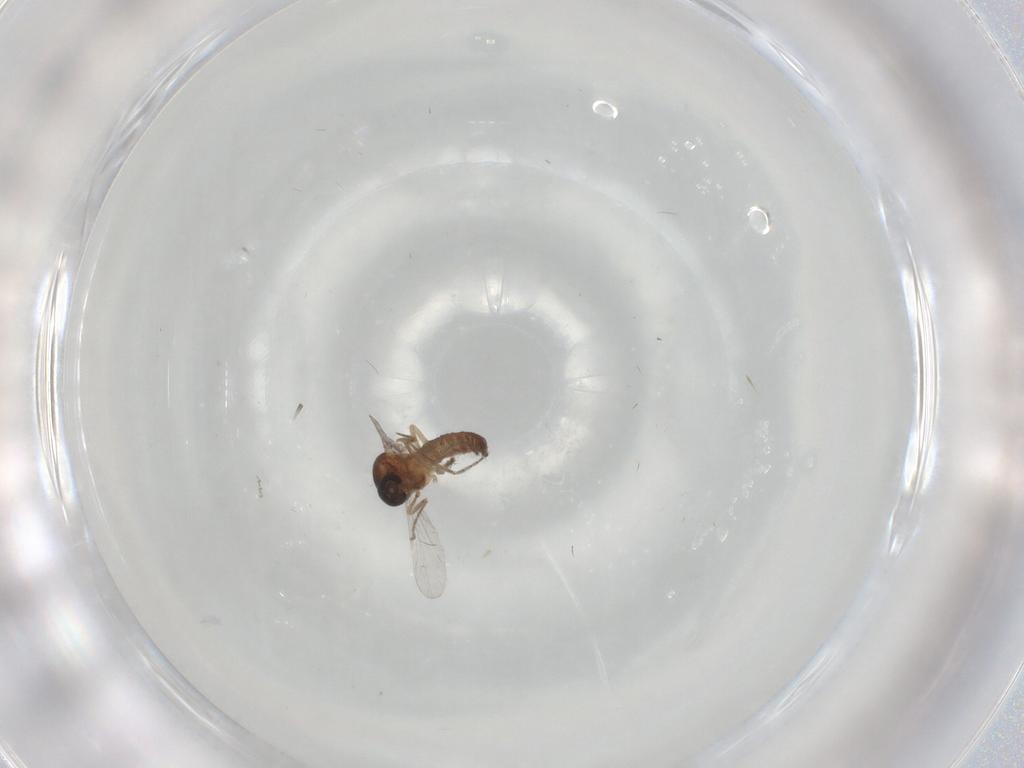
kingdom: Animalia
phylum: Arthropoda
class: Insecta
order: Diptera
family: Ceratopogonidae
